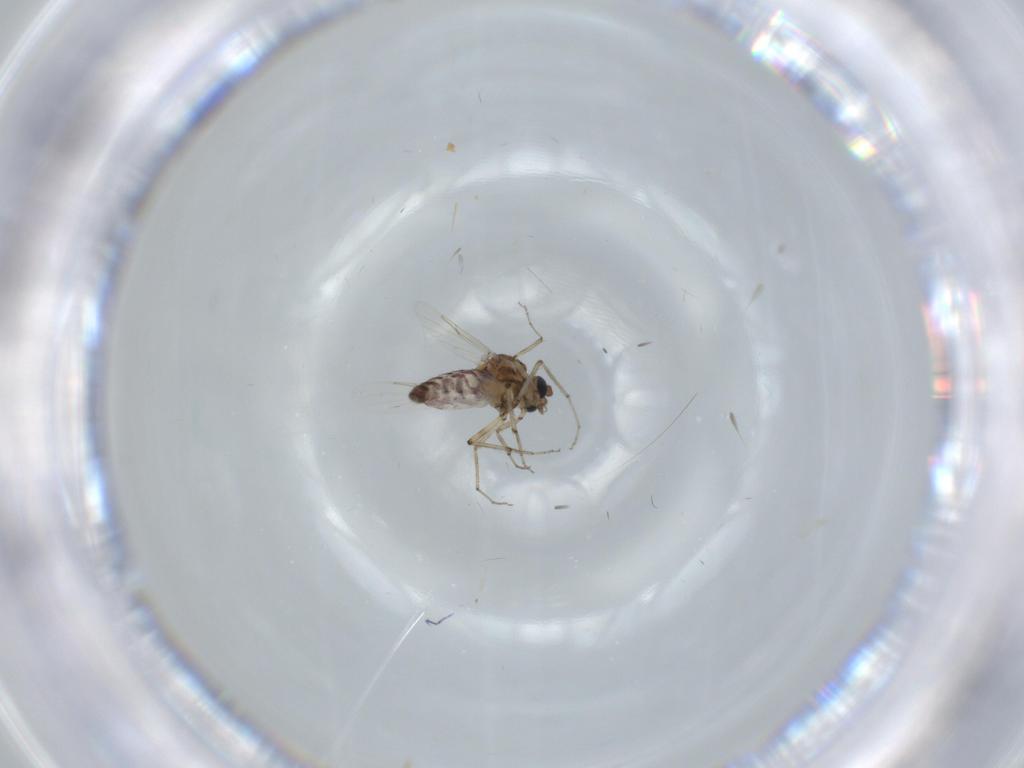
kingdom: Animalia
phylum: Arthropoda
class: Insecta
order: Diptera
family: Ceratopogonidae
